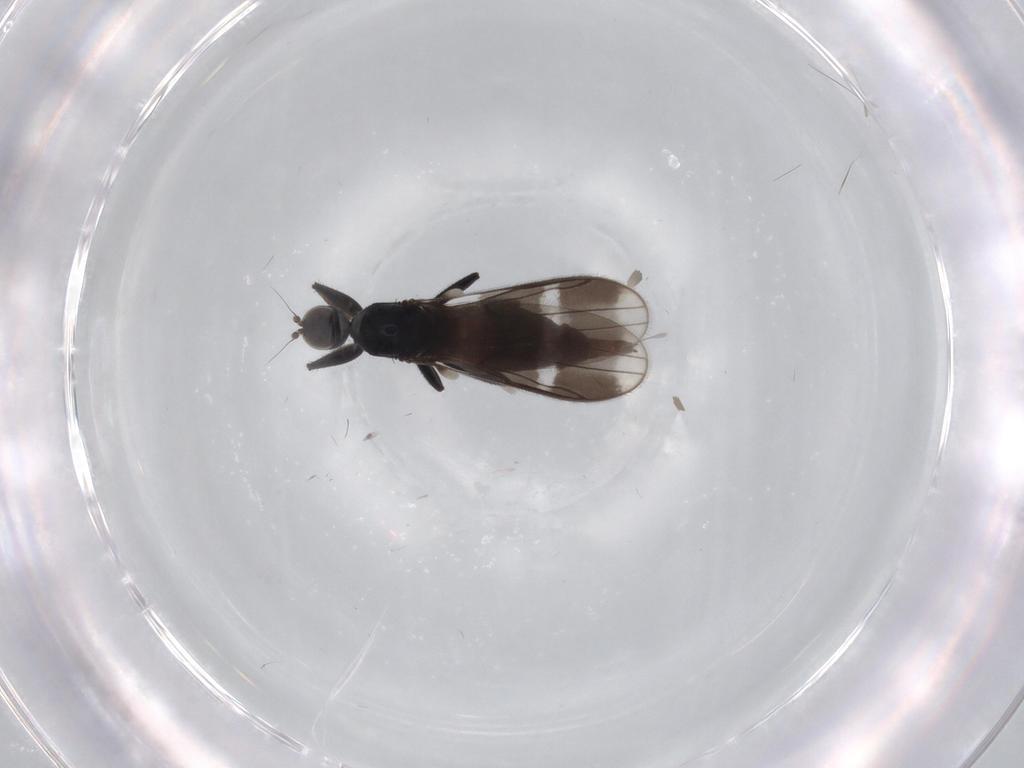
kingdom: Animalia
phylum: Arthropoda
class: Insecta
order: Diptera
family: Hybotidae
